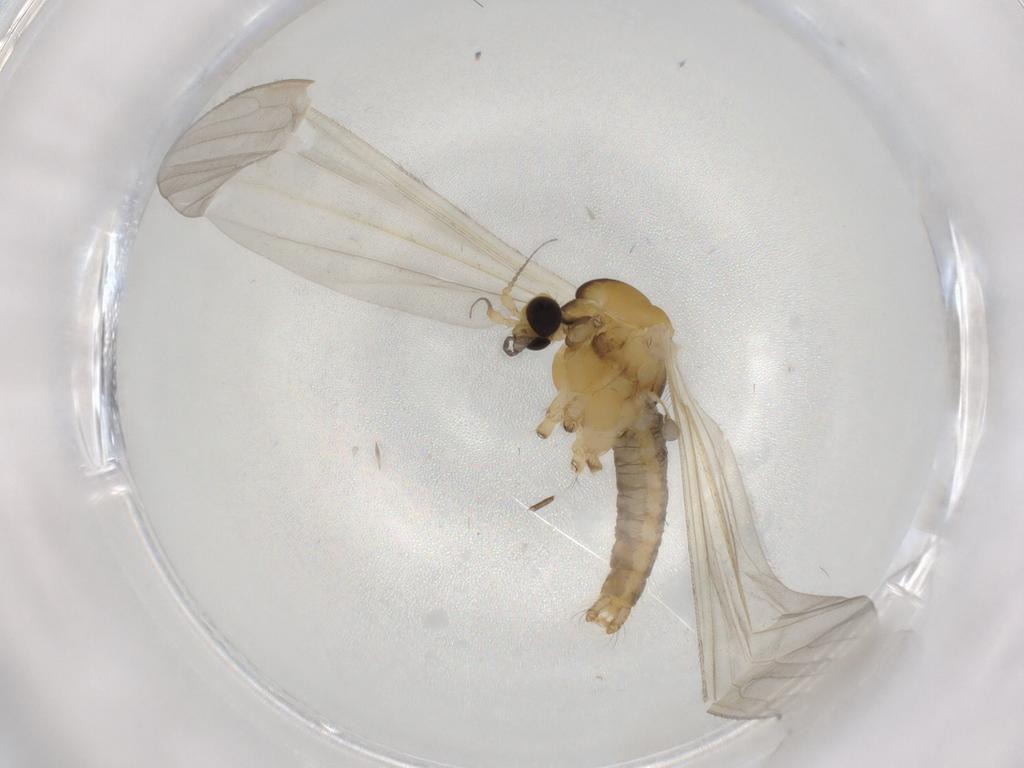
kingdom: Animalia
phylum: Arthropoda
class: Insecta
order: Diptera
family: Limoniidae
